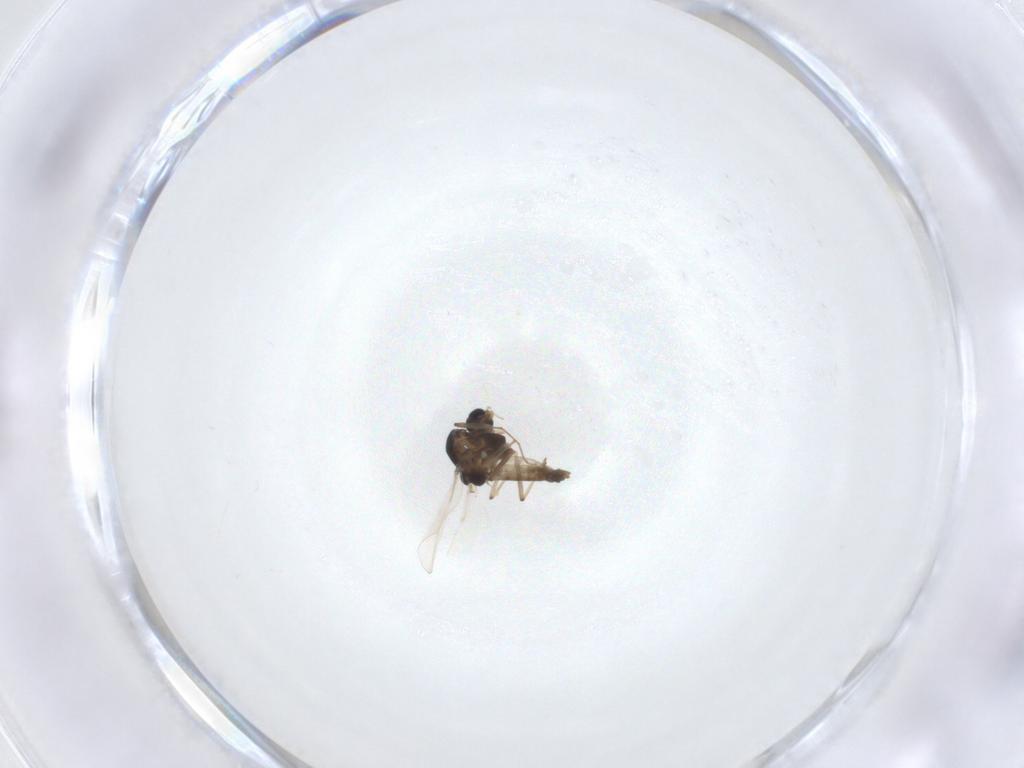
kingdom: Animalia
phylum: Arthropoda
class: Insecta
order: Diptera
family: Chironomidae
